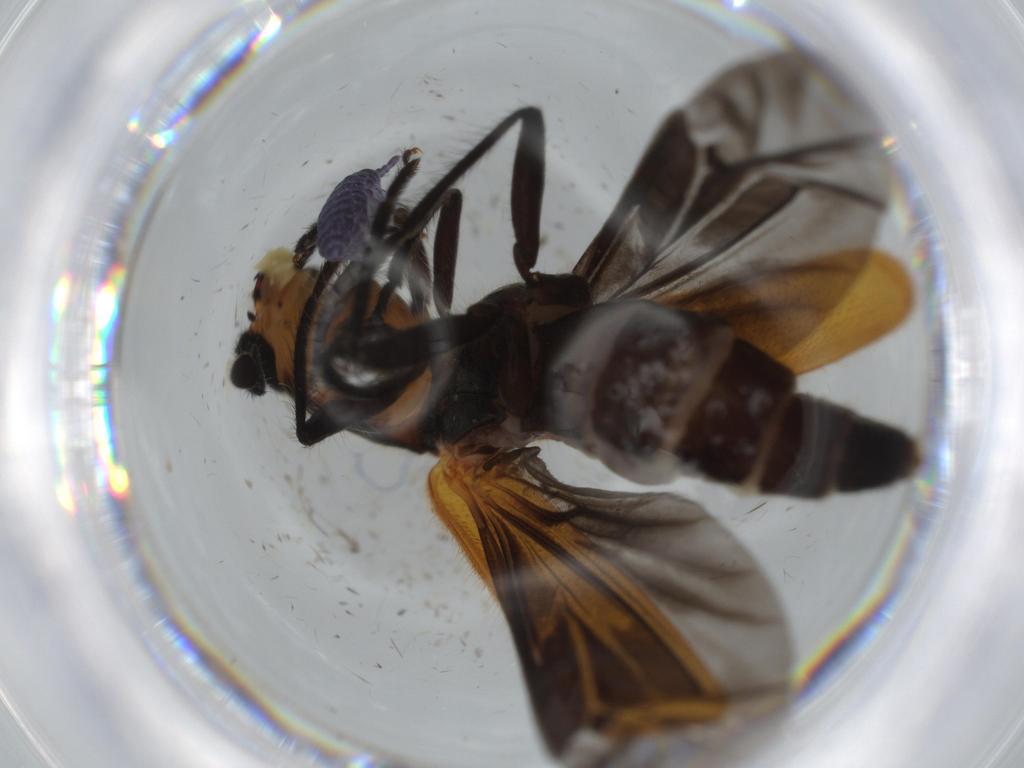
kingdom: Animalia
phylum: Arthropoda
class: Insecta
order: Coleoptera
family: Cleridae
